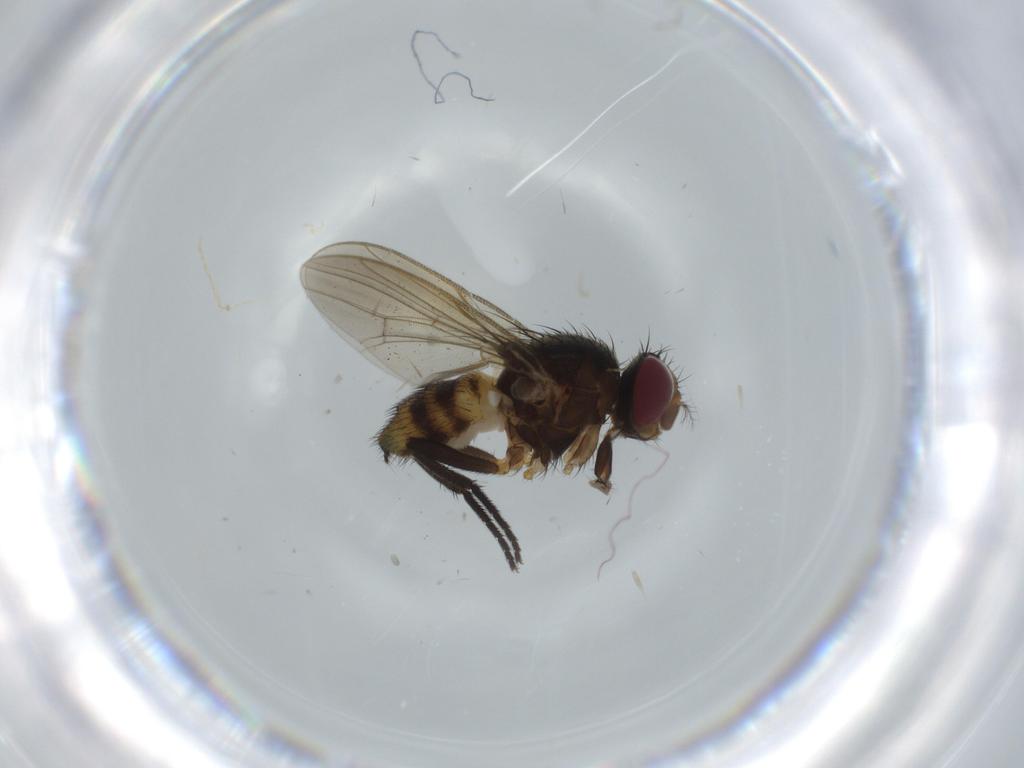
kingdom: Animalia
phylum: Arthropoda
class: Insecta
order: Diptera
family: Anthomyiidae
